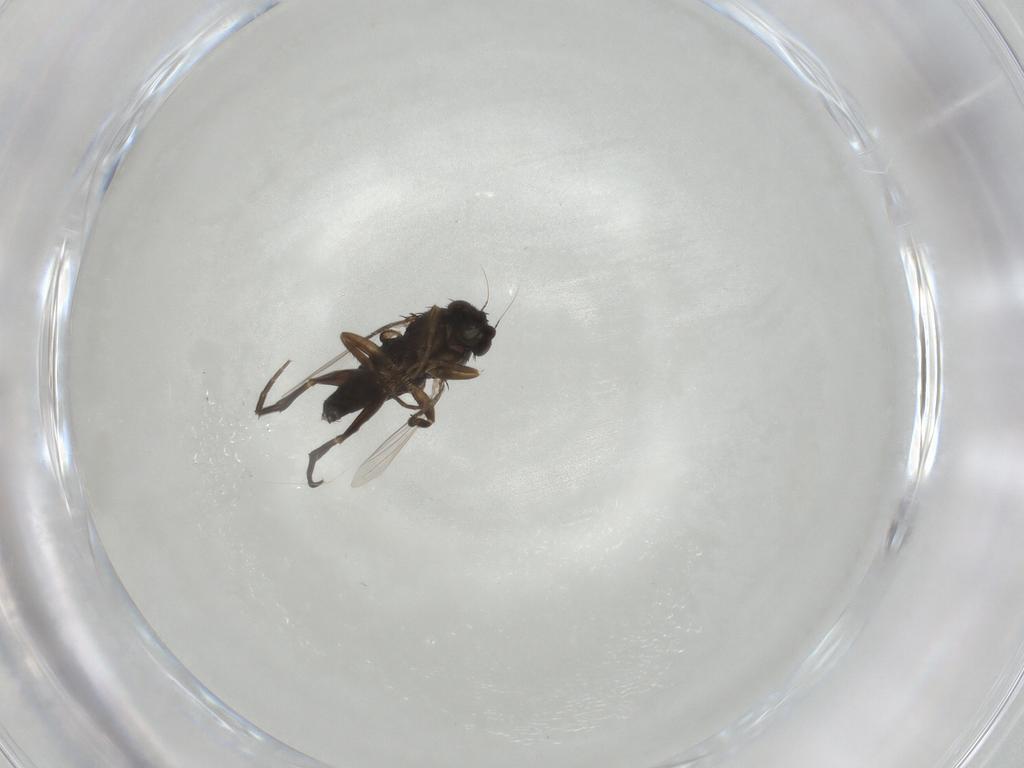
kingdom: Animalia
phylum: Arthropoda
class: Insecta
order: Diptera
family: Phoridae
